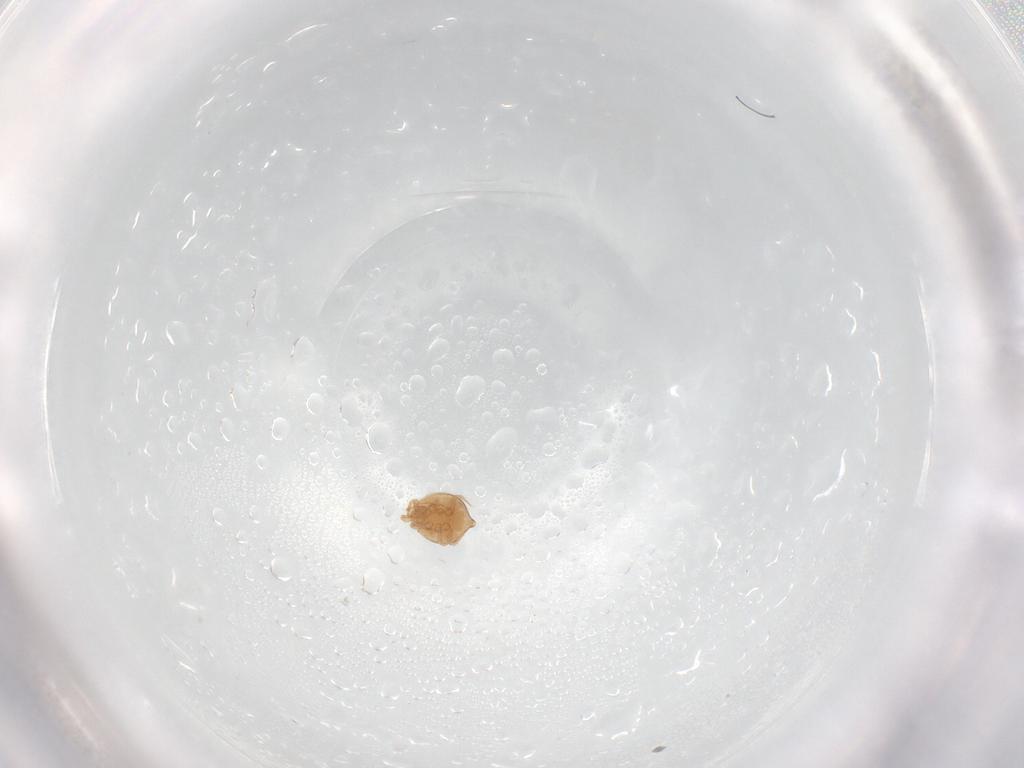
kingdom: Animalia
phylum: Arthropoda
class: Arachnida
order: Mesostigmata
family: Polyaspididae
